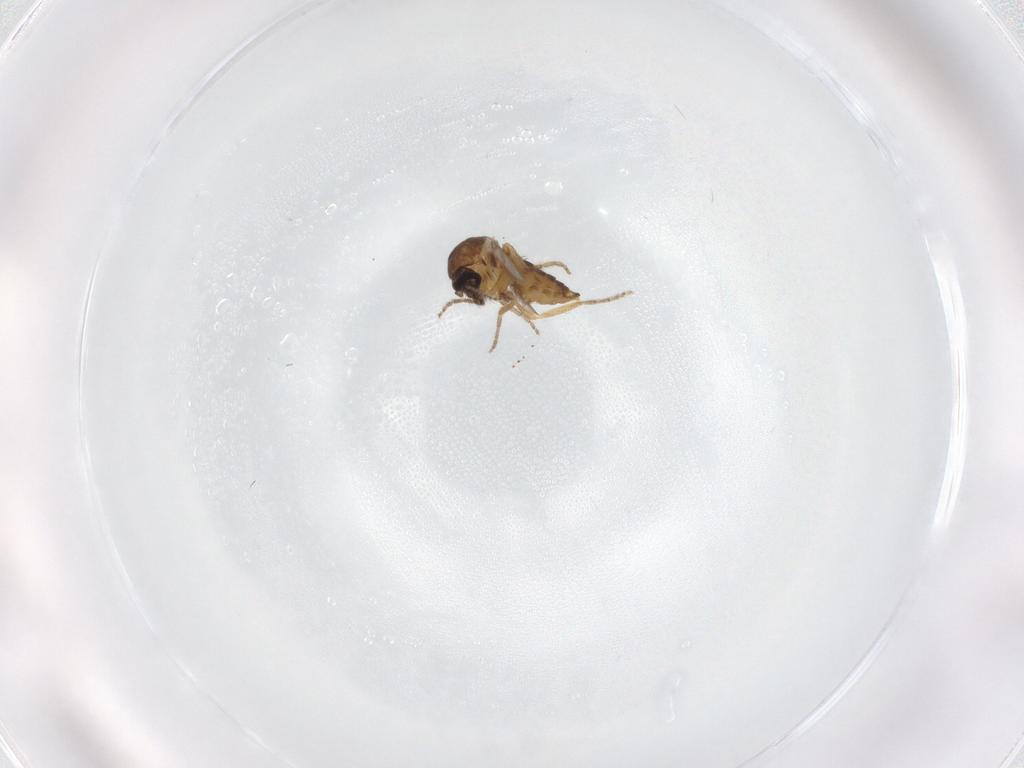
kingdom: Animalia
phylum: Arthropoda
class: Insecta
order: Diptera
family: Ceratopogonidae
